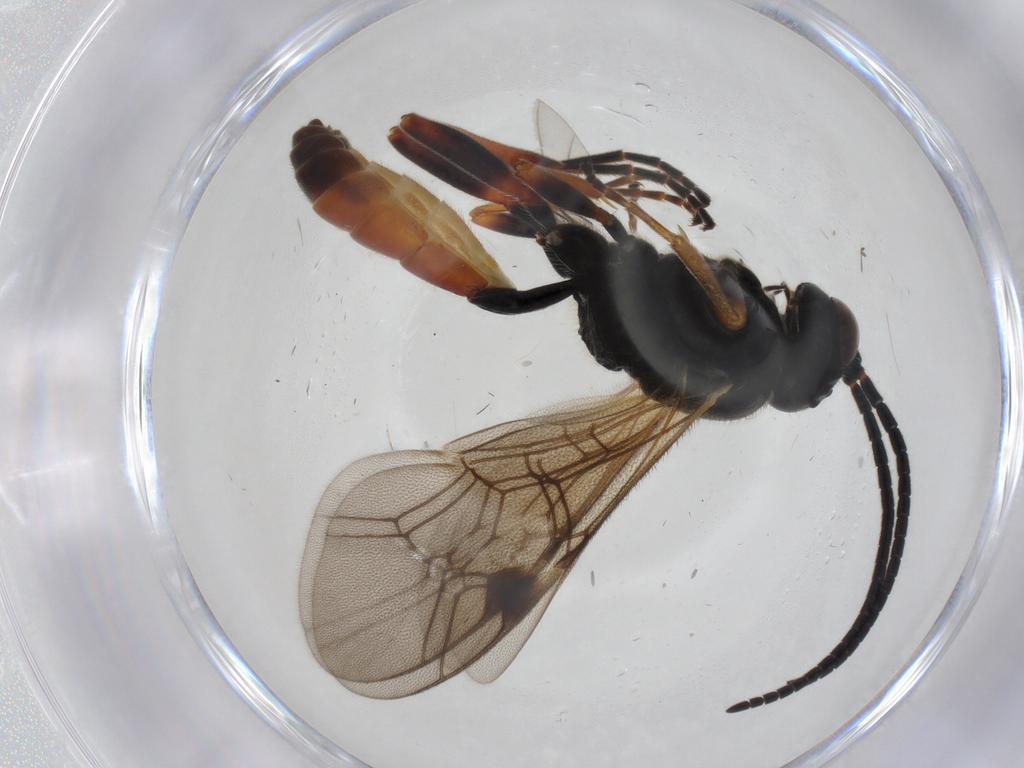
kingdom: Animalia
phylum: Arthropoda
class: Insecta
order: Hymenoptera
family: Ichneumonidae
